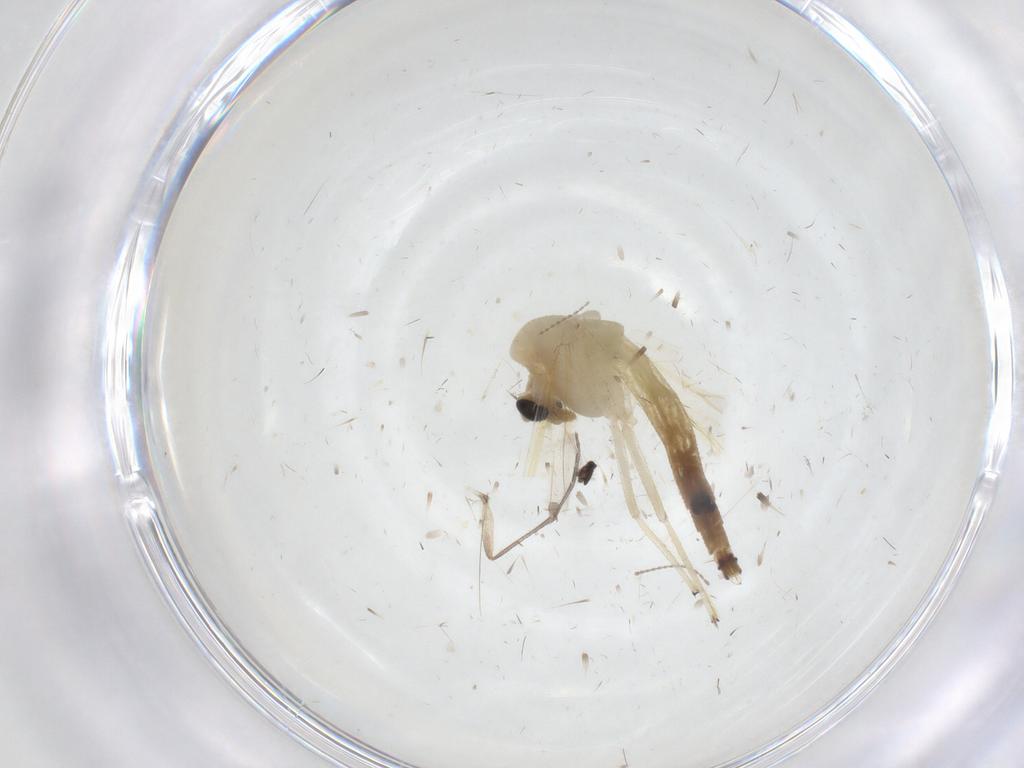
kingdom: Animalia
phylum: Arthropoda
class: Insecta
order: Diptera
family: Chironomidae
